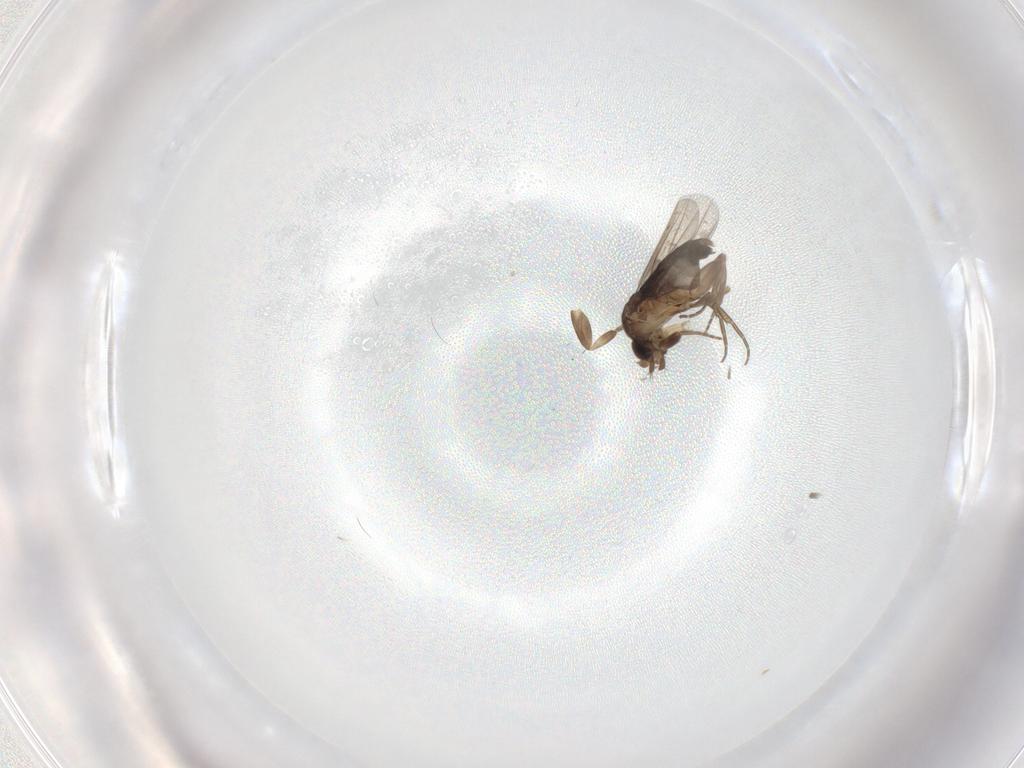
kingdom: Animalia
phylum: Arthropoda
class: Insecta
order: Diptera
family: Phoridae
